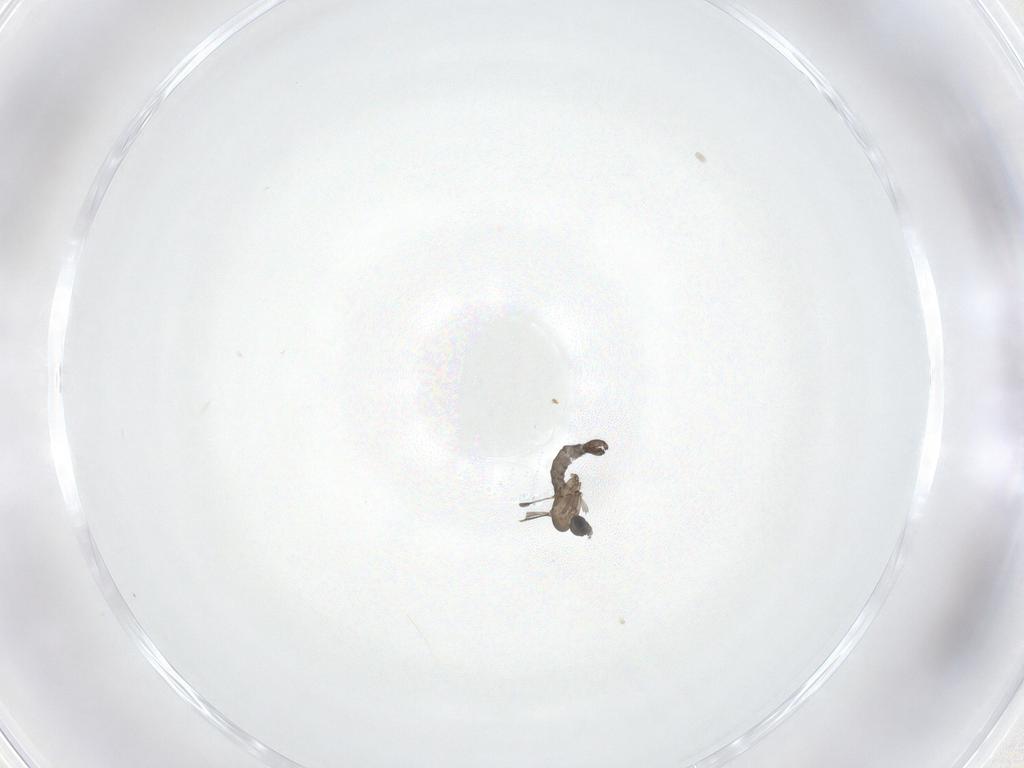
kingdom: Animalia
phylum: Arthropoda
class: Insecta
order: Diptera
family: Sciaridae
